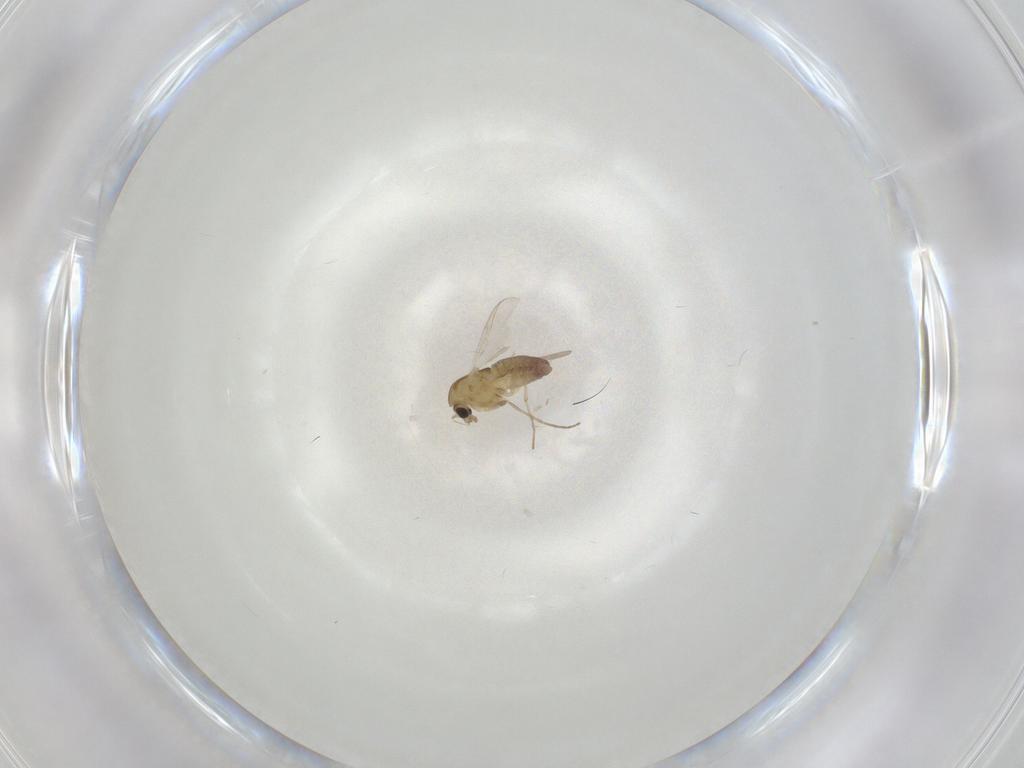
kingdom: Animalia
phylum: Arthropoda
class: Insecta
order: Diptera
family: Chironomidae
